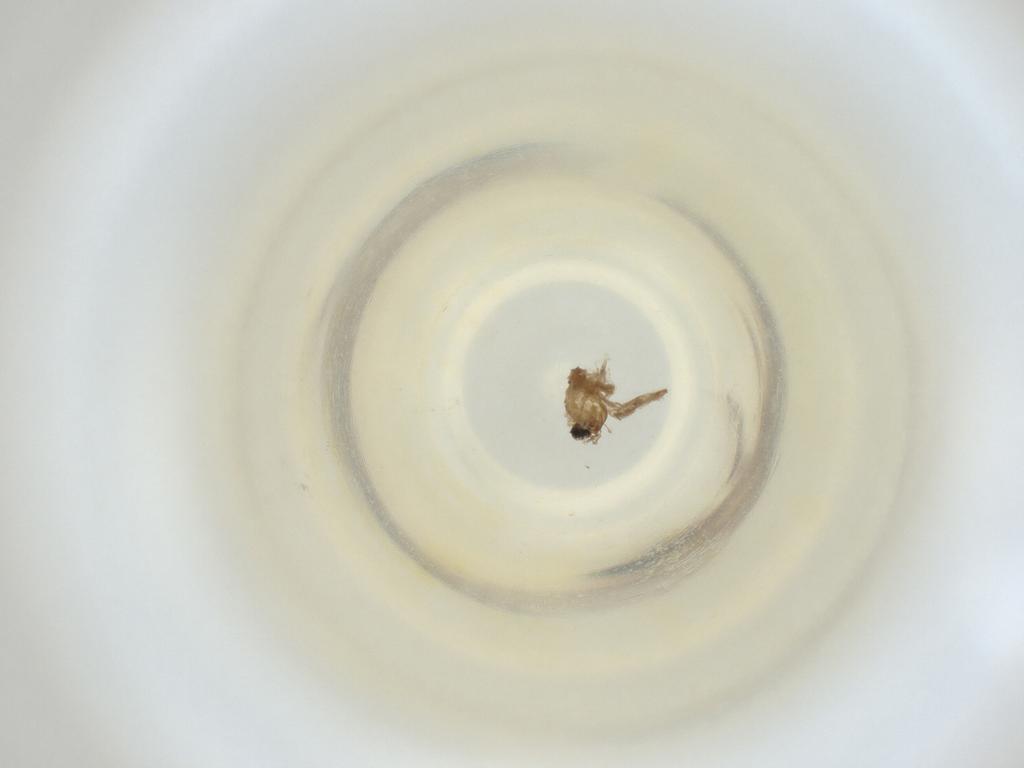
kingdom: Animalia
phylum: Arthropoda
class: Insecta
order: Diptera
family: Cecidomyiidae
